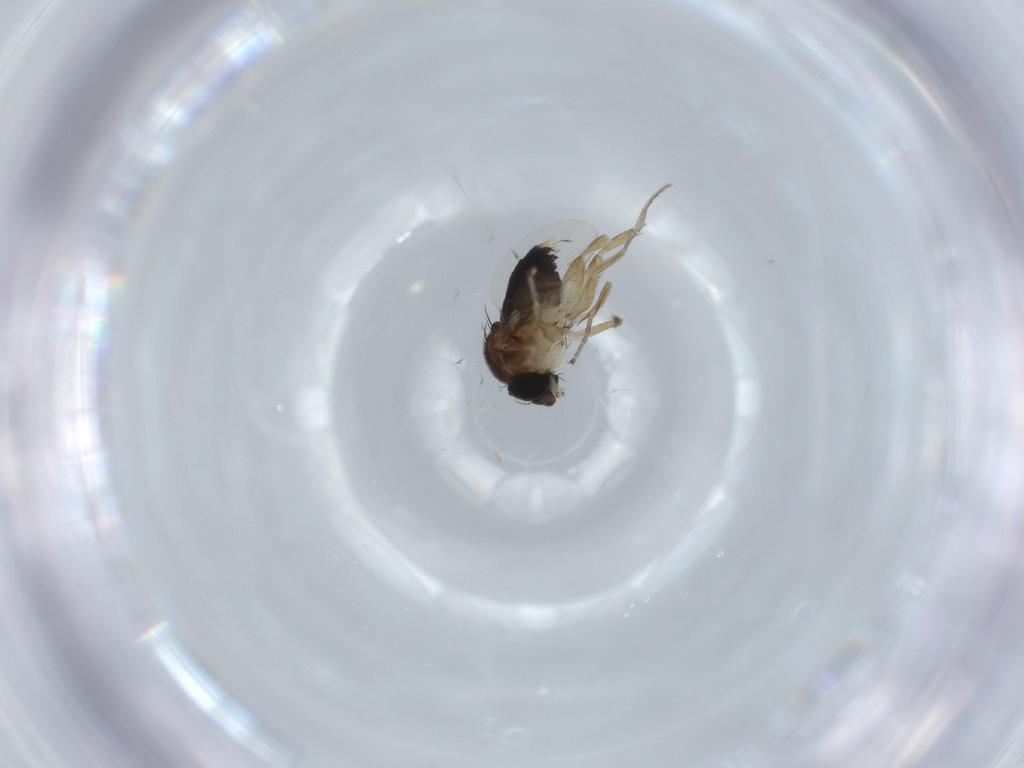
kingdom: Animalia
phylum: Arthropoda
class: Insecta
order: Diptera
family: Phoridae
